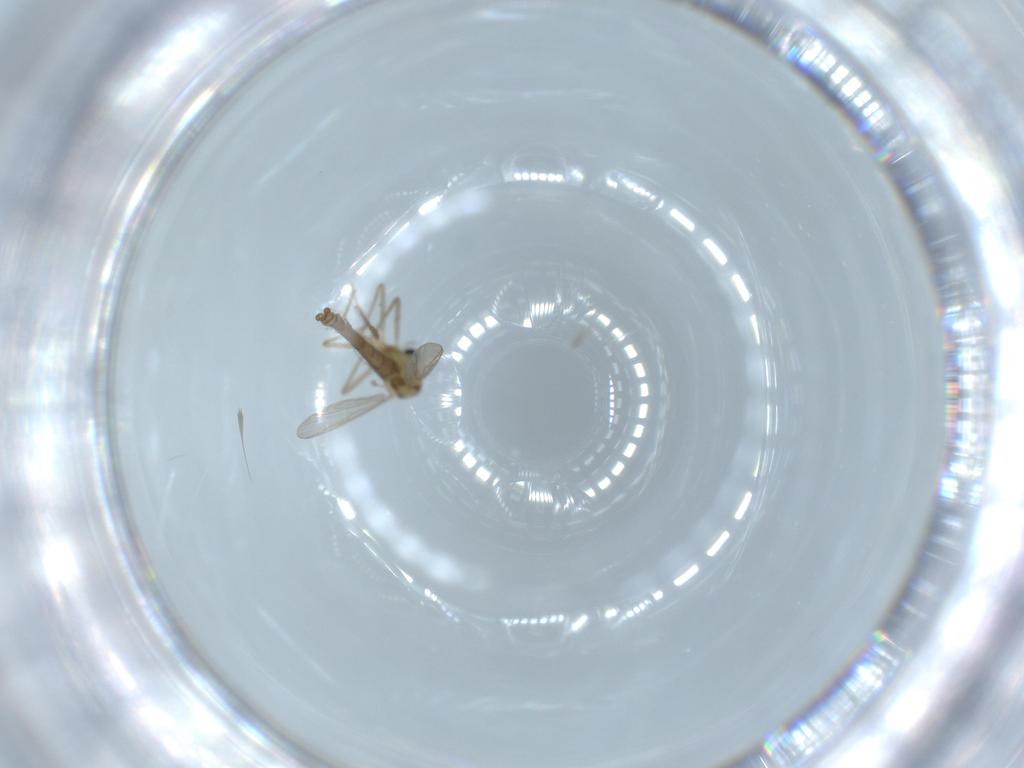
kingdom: Animalia
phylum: Arthropoda
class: Insecta
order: Diptera
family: Chironomidae
